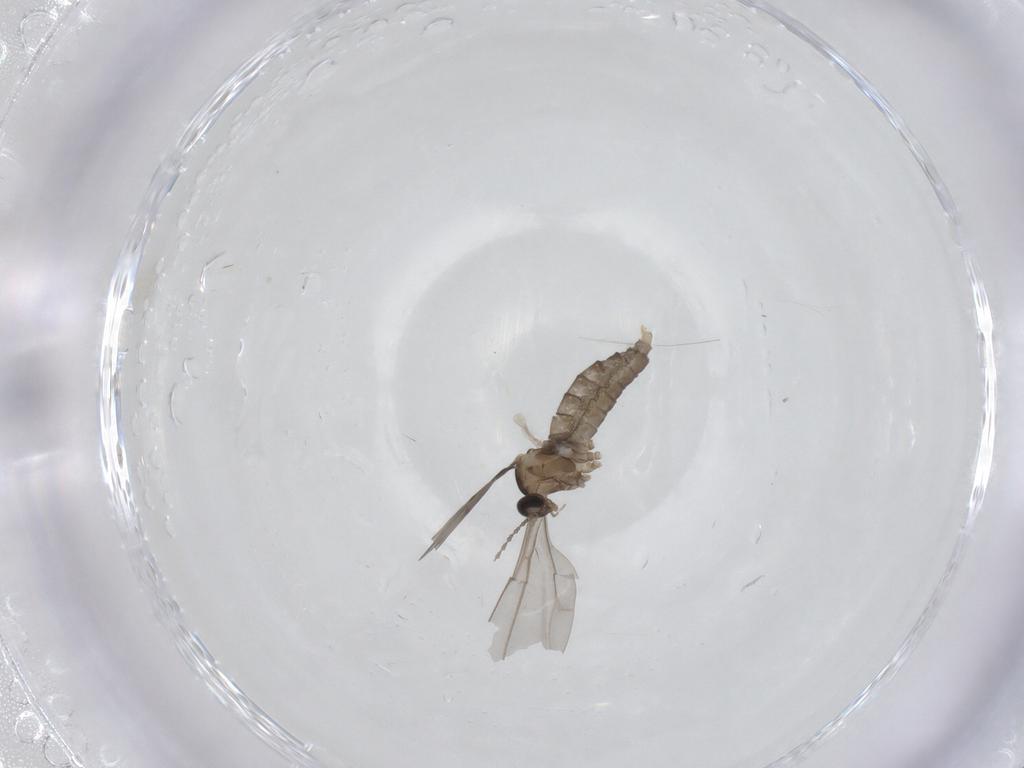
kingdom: Animalia
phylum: Arthropoda
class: Insecta
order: Diptera
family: Cecidomyiidae
